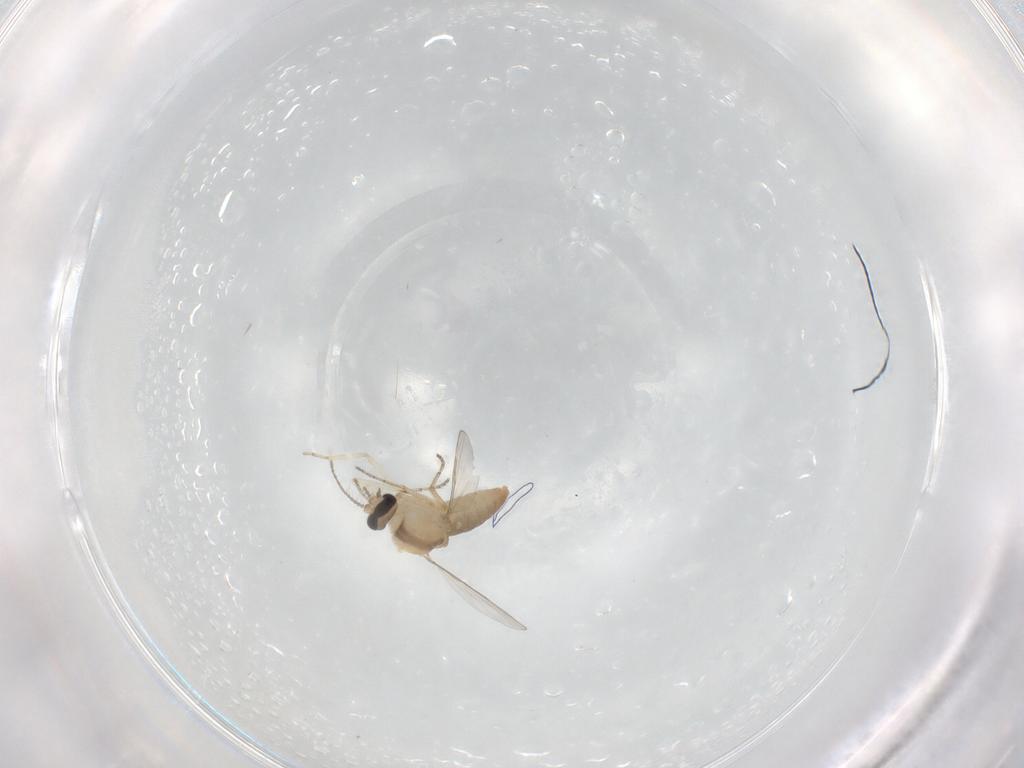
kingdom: Animalia
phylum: Arthropoda
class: Insecta
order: Diptera
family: Ceratopogonidae
